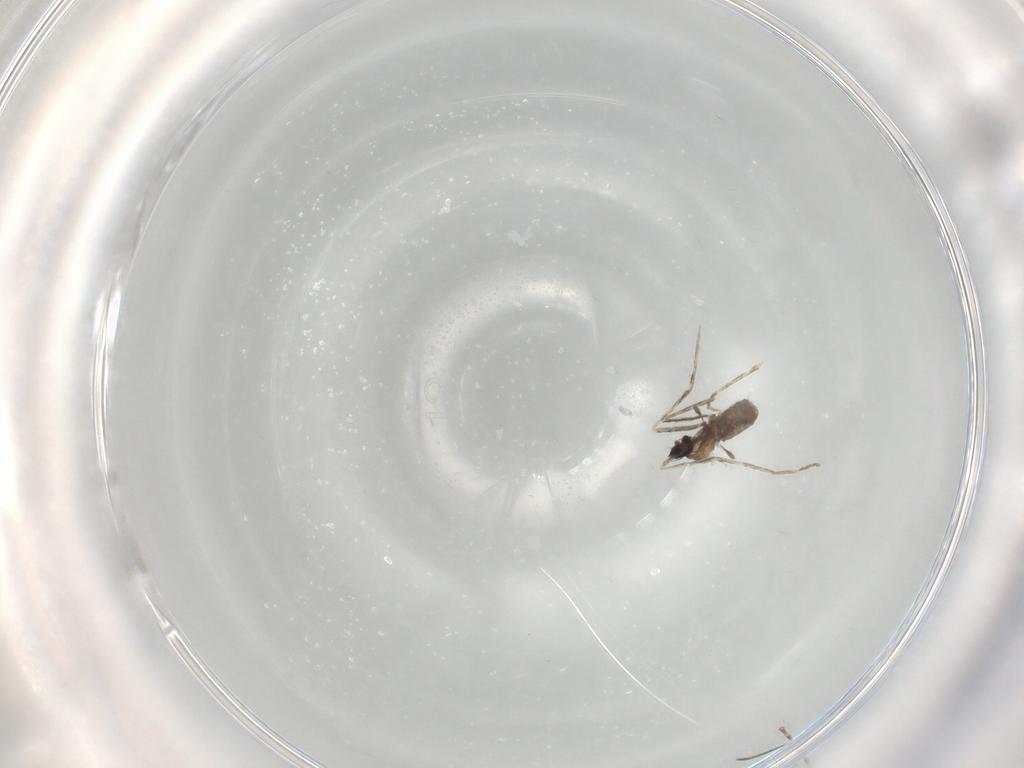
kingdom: Animalia
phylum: Arthropoda
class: Insecta
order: Diptera
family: Cecidomyiidae
